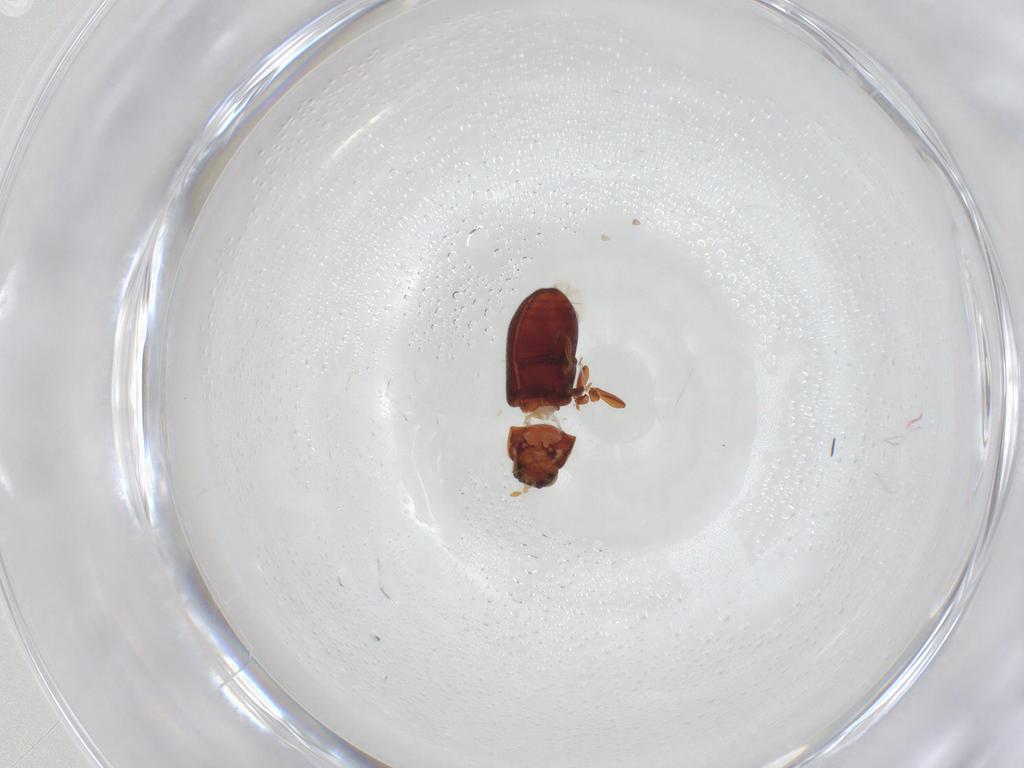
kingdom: Animalia
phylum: Arthropoda
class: Insecta
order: Coleoptera
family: Ptinidae
